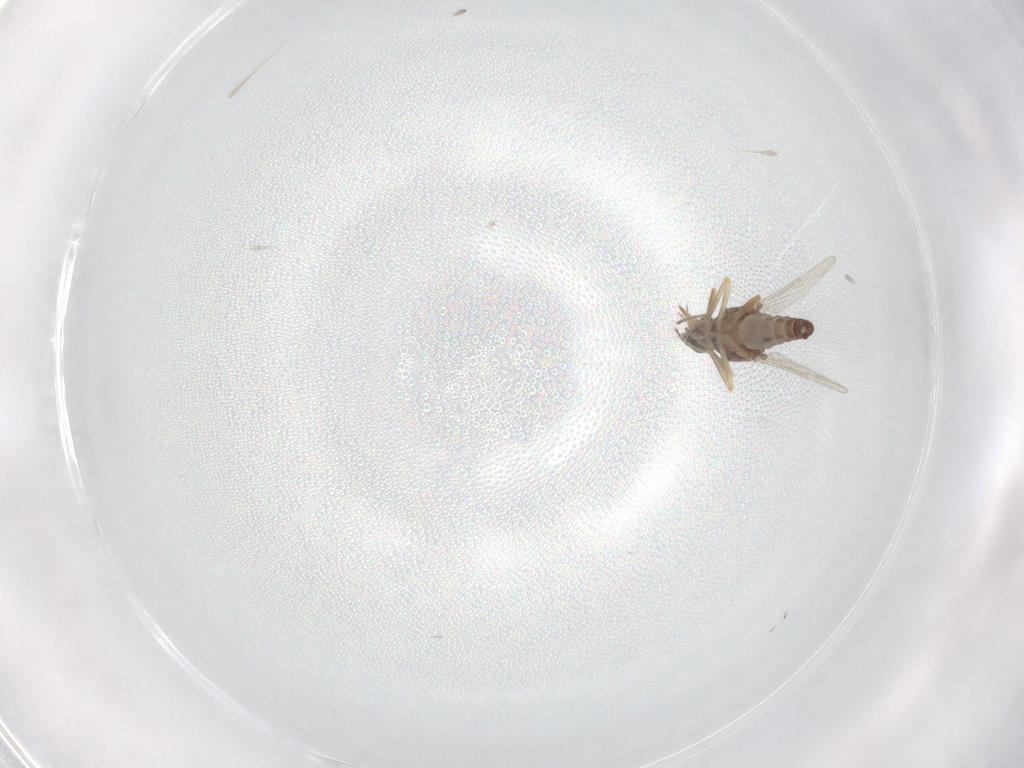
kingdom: Animalia
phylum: Arthropoda
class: Insecta
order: Diptera
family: Ceratopogonidae
